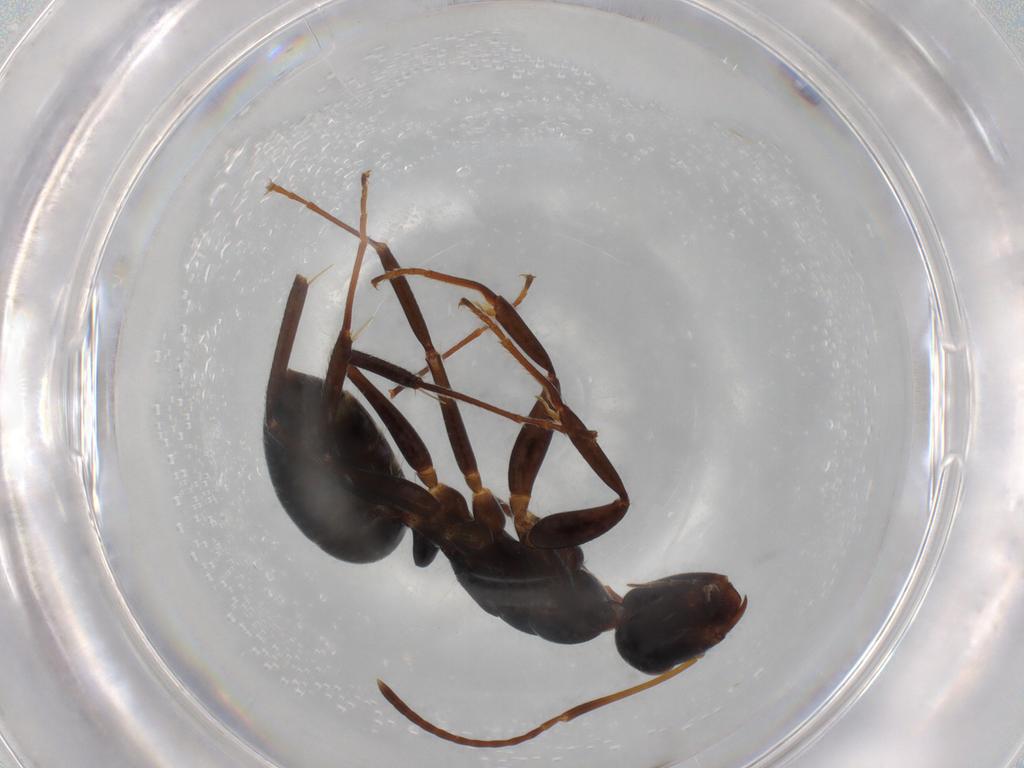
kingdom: Animalia
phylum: Arthropoda
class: Insecta
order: Hymenoptera
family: Formicidae
